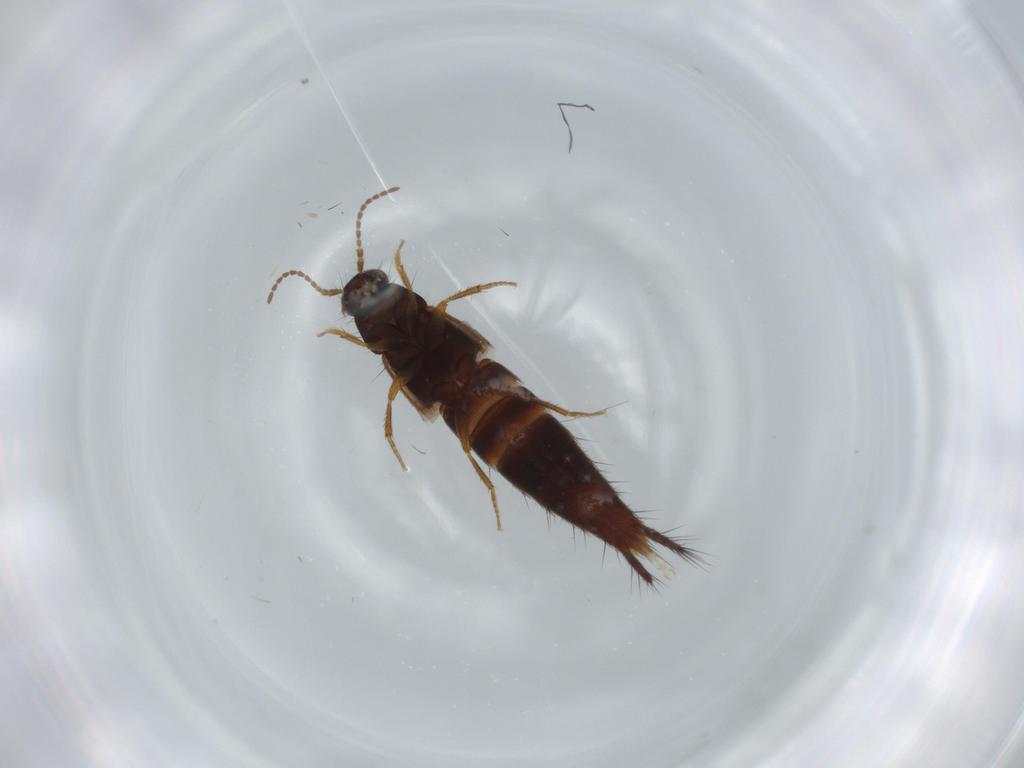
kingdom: Animalia
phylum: Arthropoda
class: Insecta
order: Coleoptera
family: Staphylinidae
